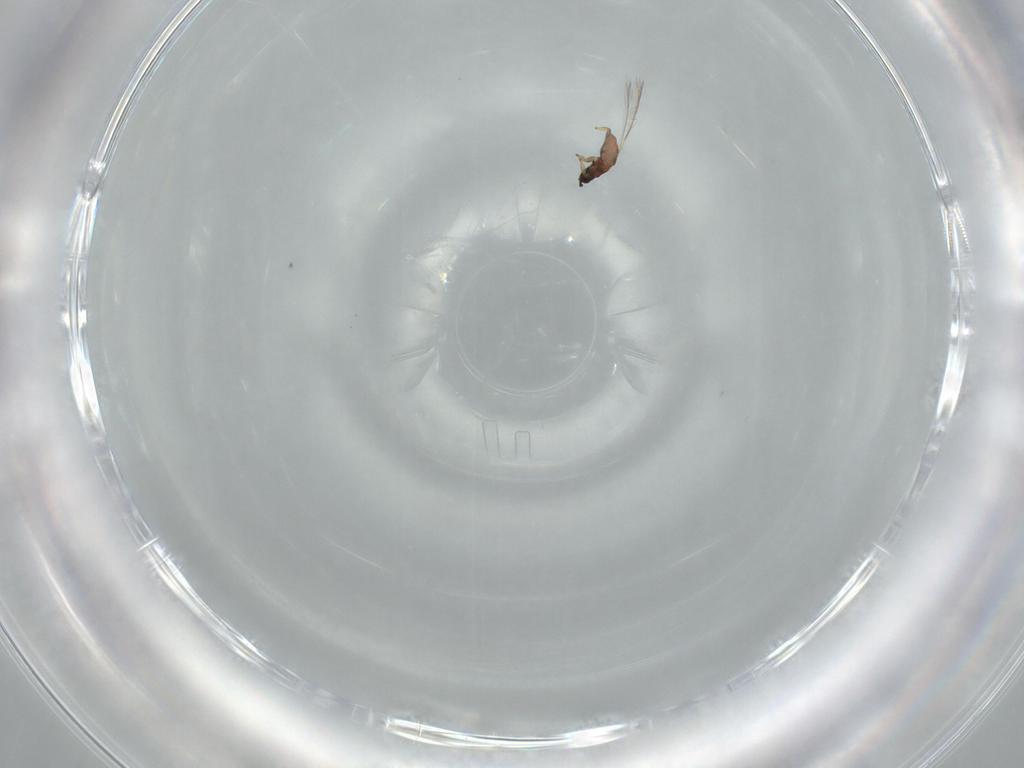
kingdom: Animalia
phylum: Arthropoda
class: Insecta
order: Thysanoptera
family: Thripidae
